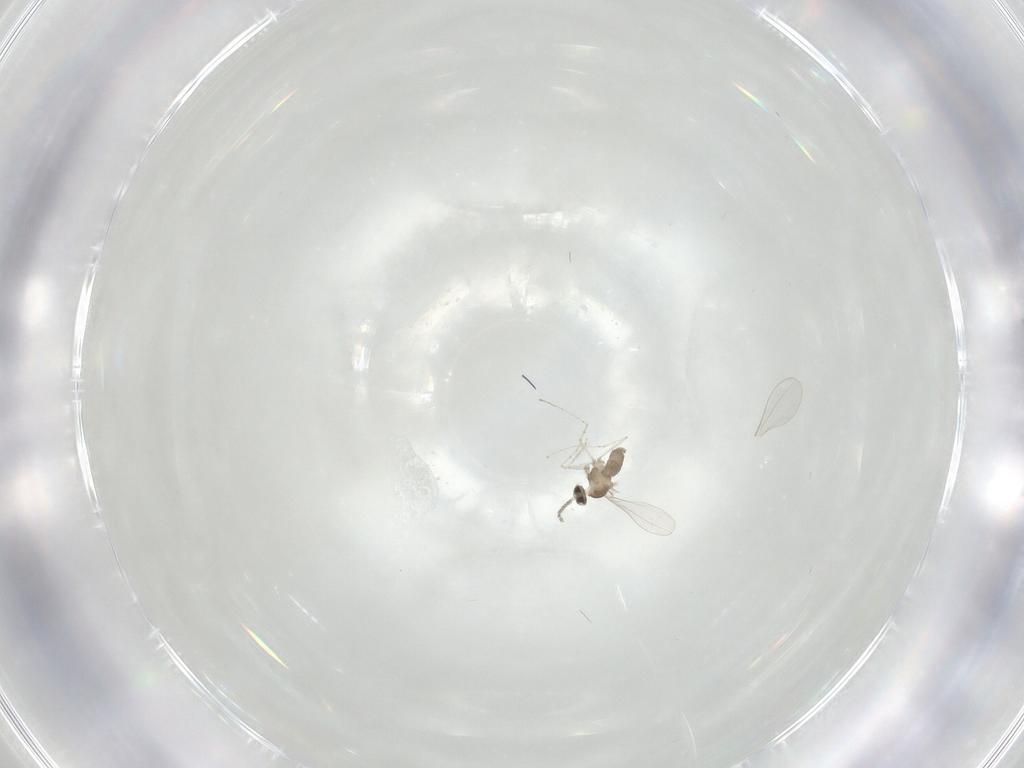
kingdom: Animalia
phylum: Arthropoda
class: Insecta
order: Diptera
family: Cecidomyiidae
